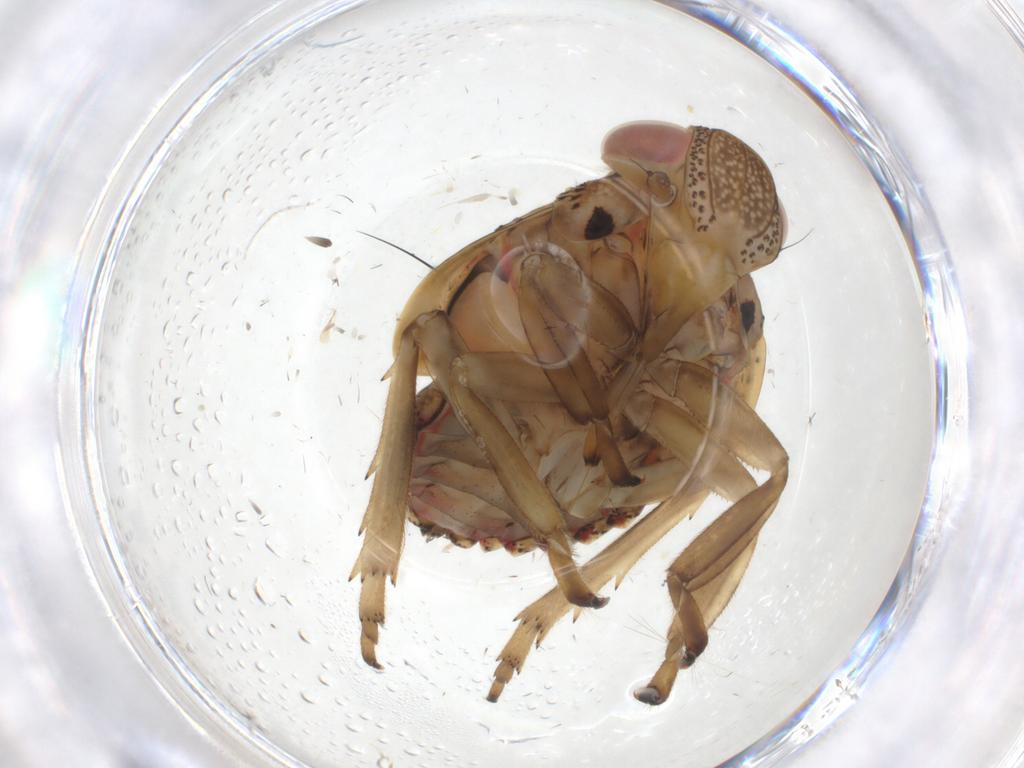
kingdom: Animalia
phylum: Arthropoda
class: Insecta
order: Hemiptera
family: Issidae
